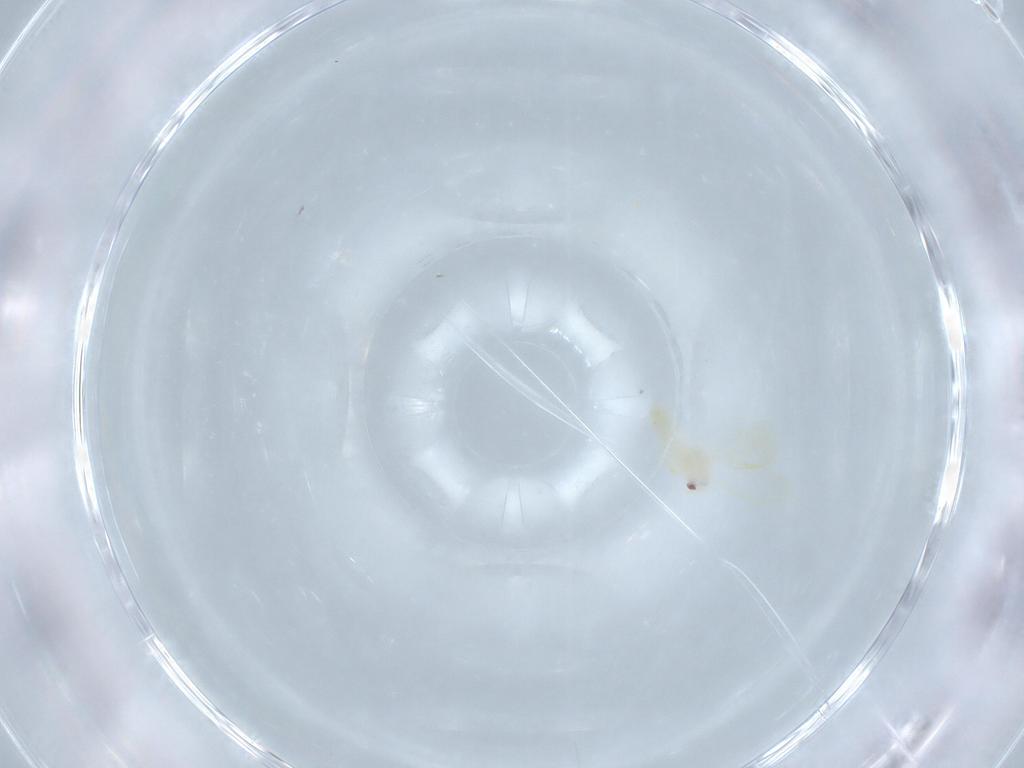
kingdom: Animalia
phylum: Arthropoda
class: Insecta
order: Hemiptera
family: Aleyrodidae
